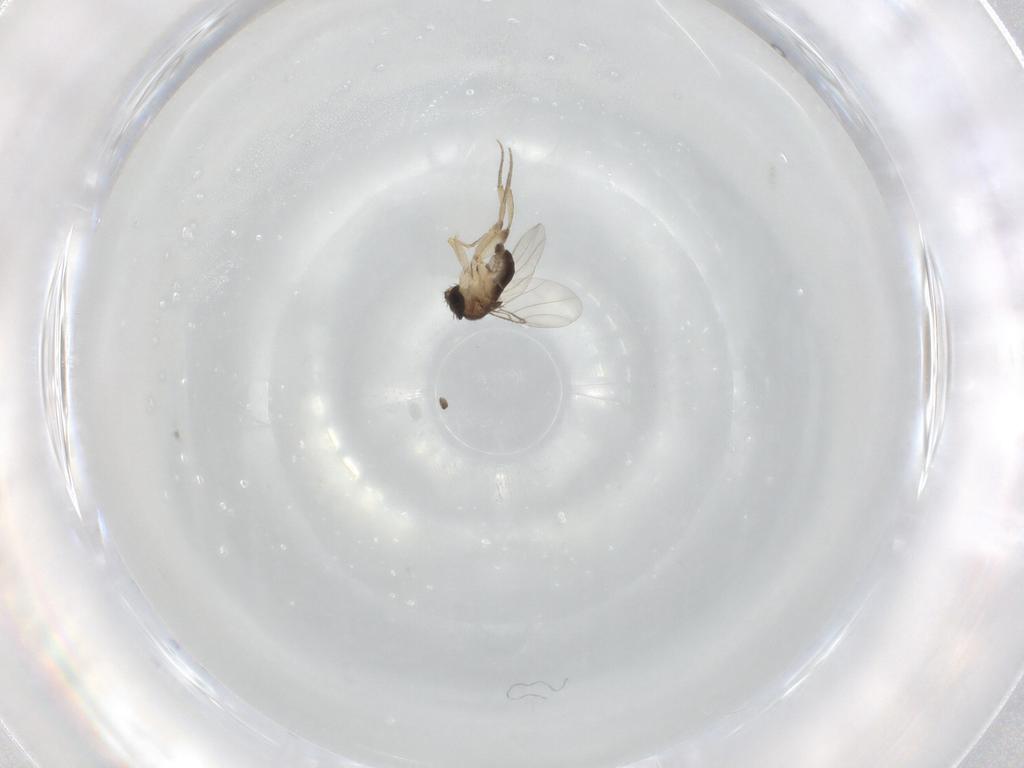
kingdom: Animalia
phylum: Arthropoda
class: Insecta
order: Diptera
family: Phoridae
